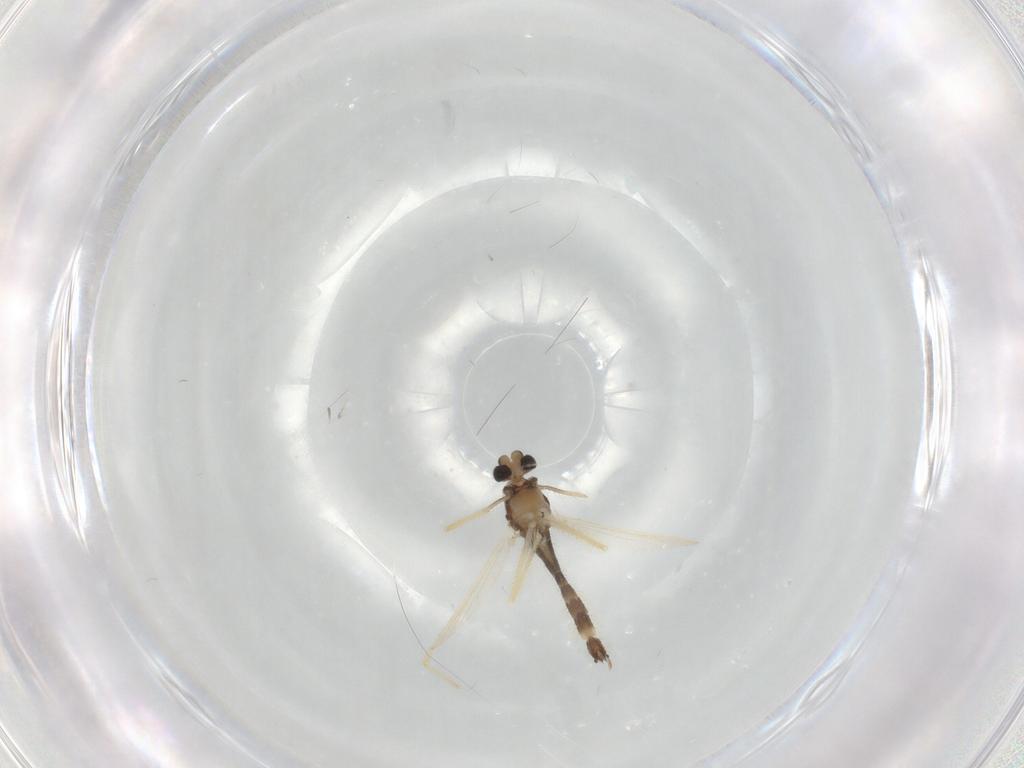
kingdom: Animalia
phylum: Arthropoda
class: Insecta
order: Diptera
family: Chironomidae
